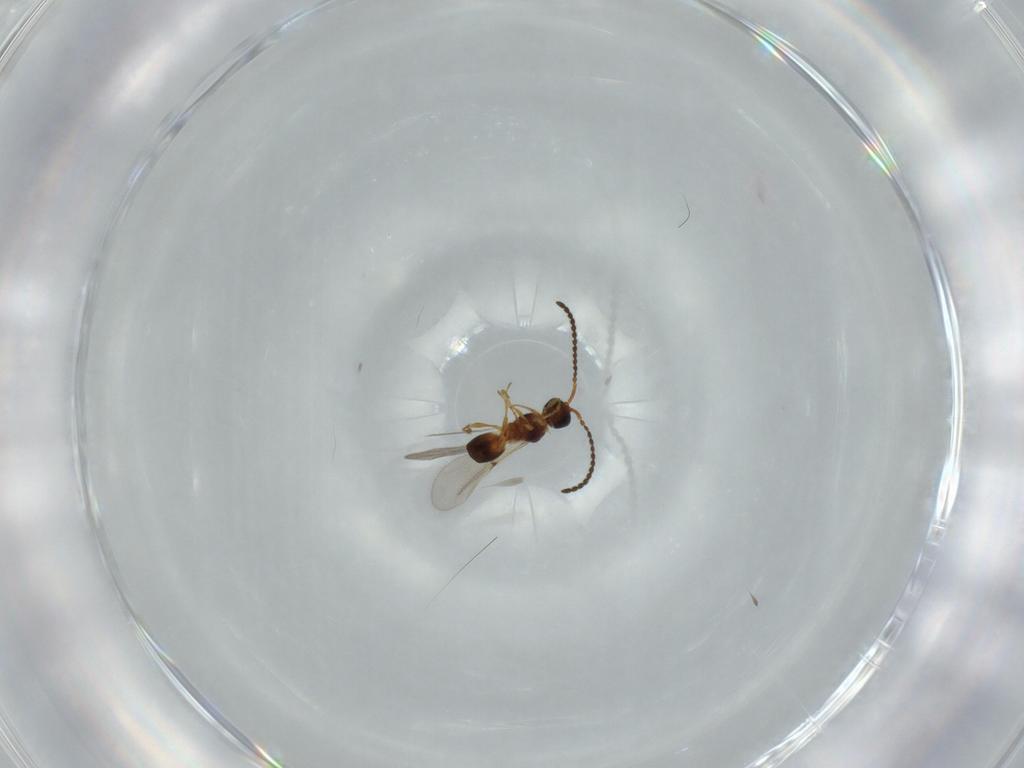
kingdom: Animalia
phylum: Arthropoda
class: Insecta
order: Hymenoptera
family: Diapriidae
